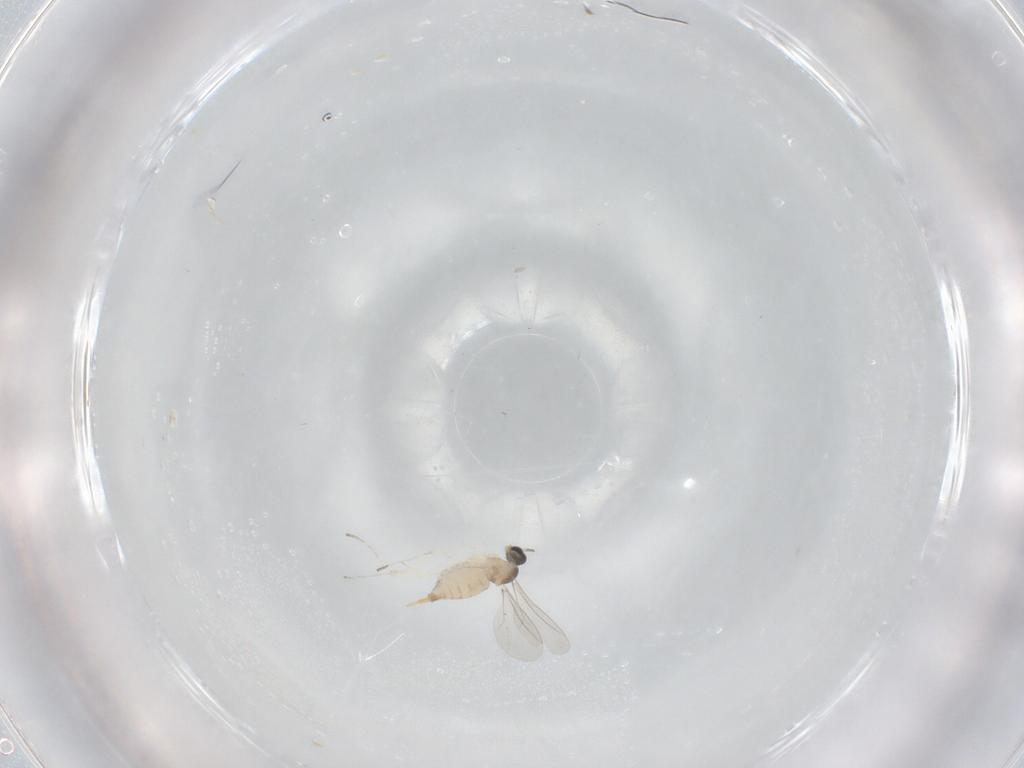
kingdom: Animalia
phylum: Arthropoda
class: Insecta
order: Diptera
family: Cecidomyiidae
